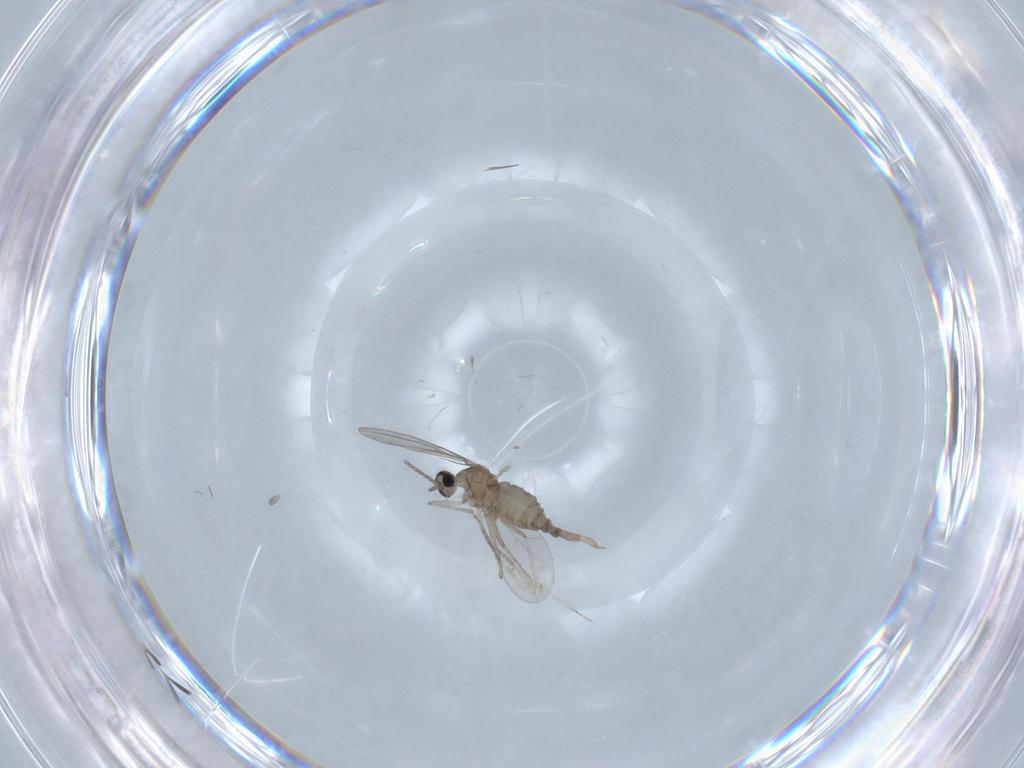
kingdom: Animalia
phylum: Arthropoda
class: Insecta
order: Diptera
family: Cecidomyiidae
